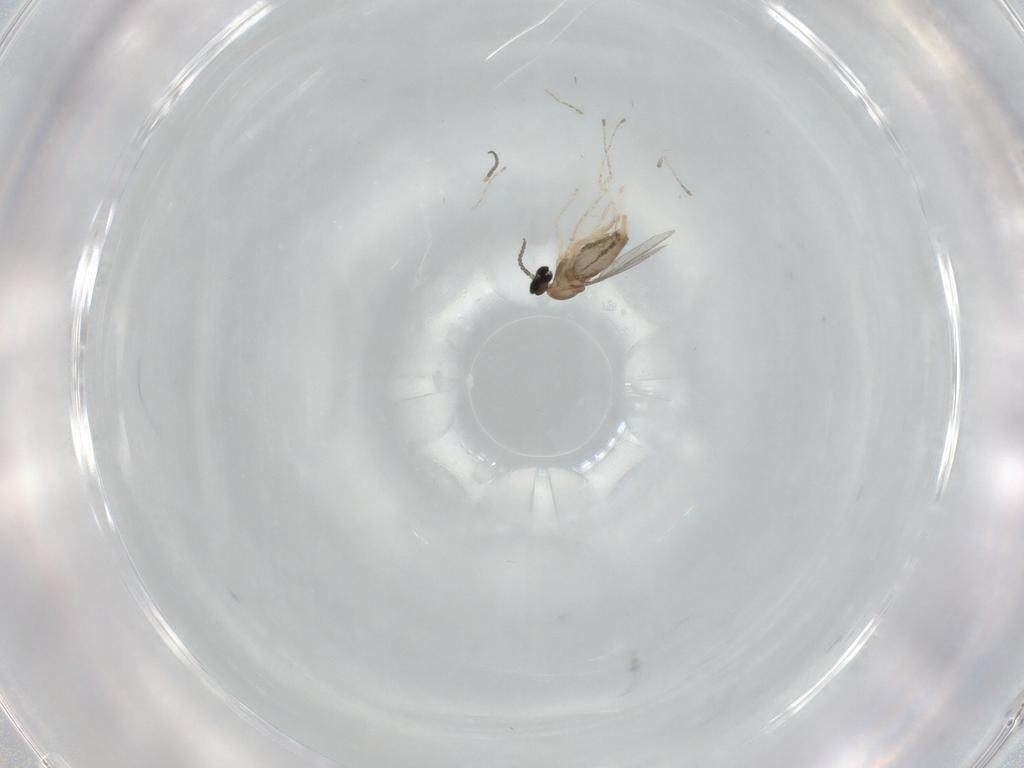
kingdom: Animalia
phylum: Arthropoda
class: Insecta
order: Diptera
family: Cecidomyiidae
